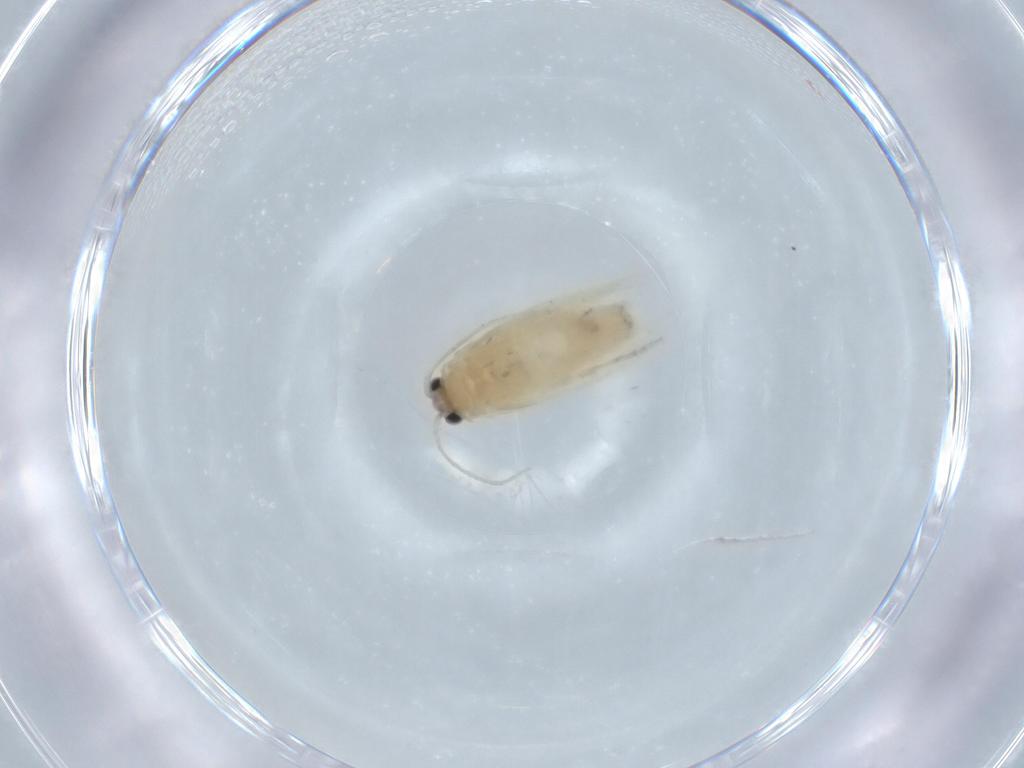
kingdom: Animalia
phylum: Arthropoda
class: Insecta
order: Lepidoptera
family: Nepticulidae
